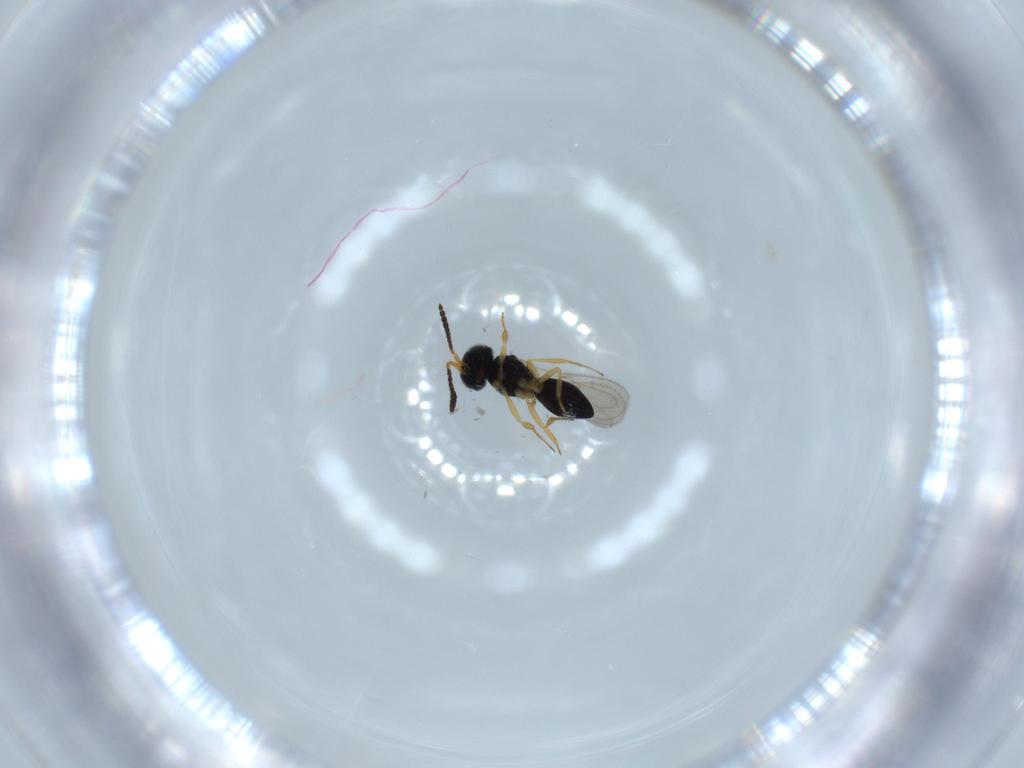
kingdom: Animalia
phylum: Arthropoda
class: Insecta
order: Hymenoptera
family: Scelionidae
